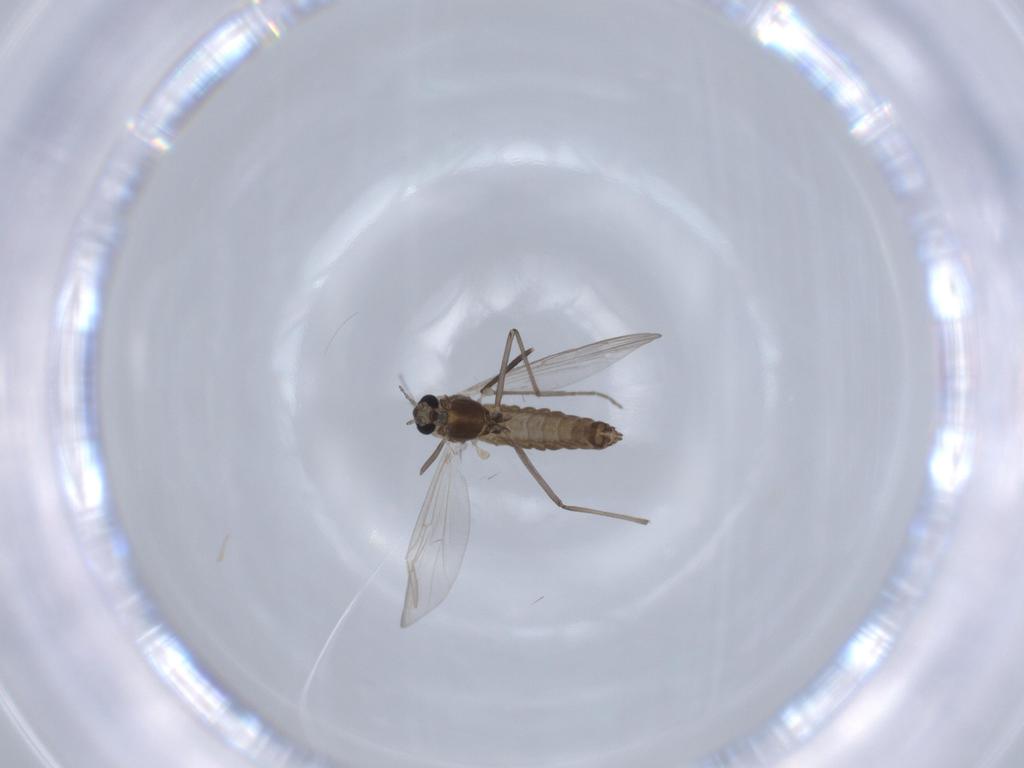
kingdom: Animalia
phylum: Arthropoda
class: Insecta
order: Diptera
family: Chironomidae
